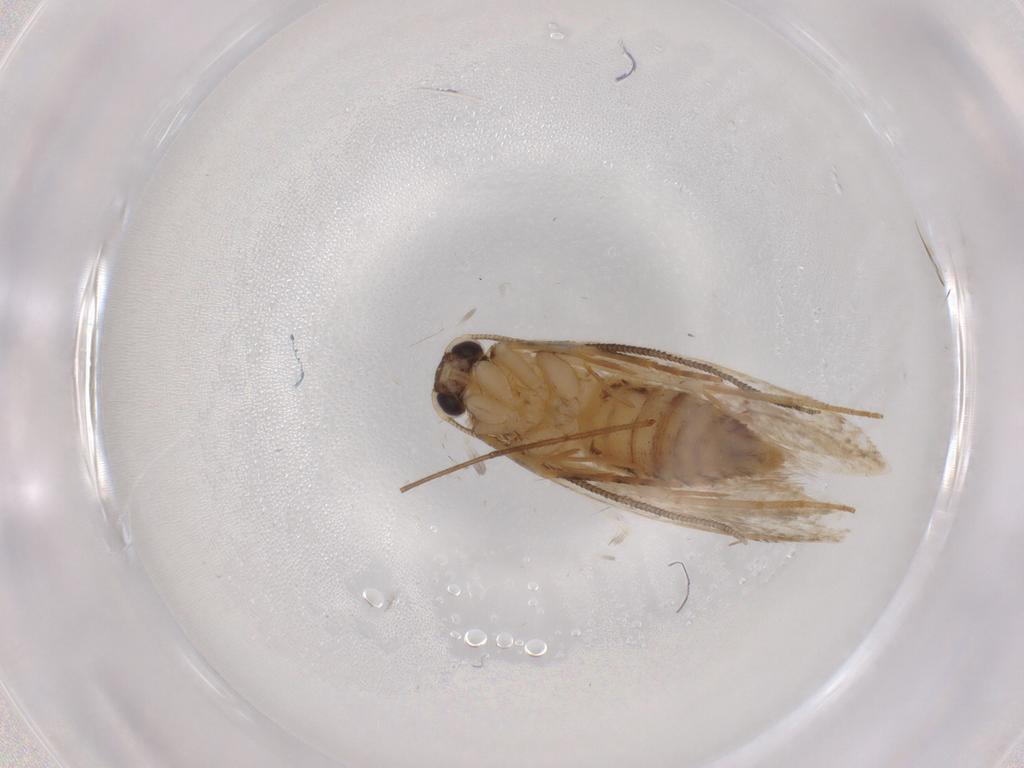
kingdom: Animalia
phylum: Arthropoda
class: Insecta
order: Lepidoptera
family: Tineidae
